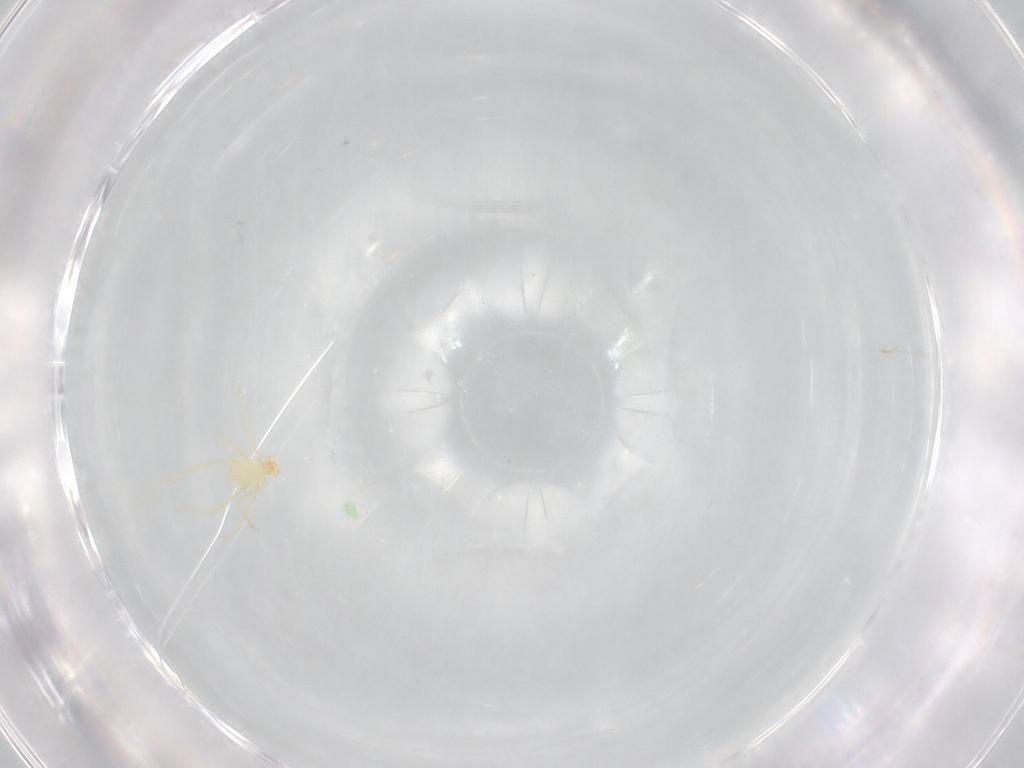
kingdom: Animalia
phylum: Arthropoda
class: Arachnida
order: Trombidiformes
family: Erythraeidae
